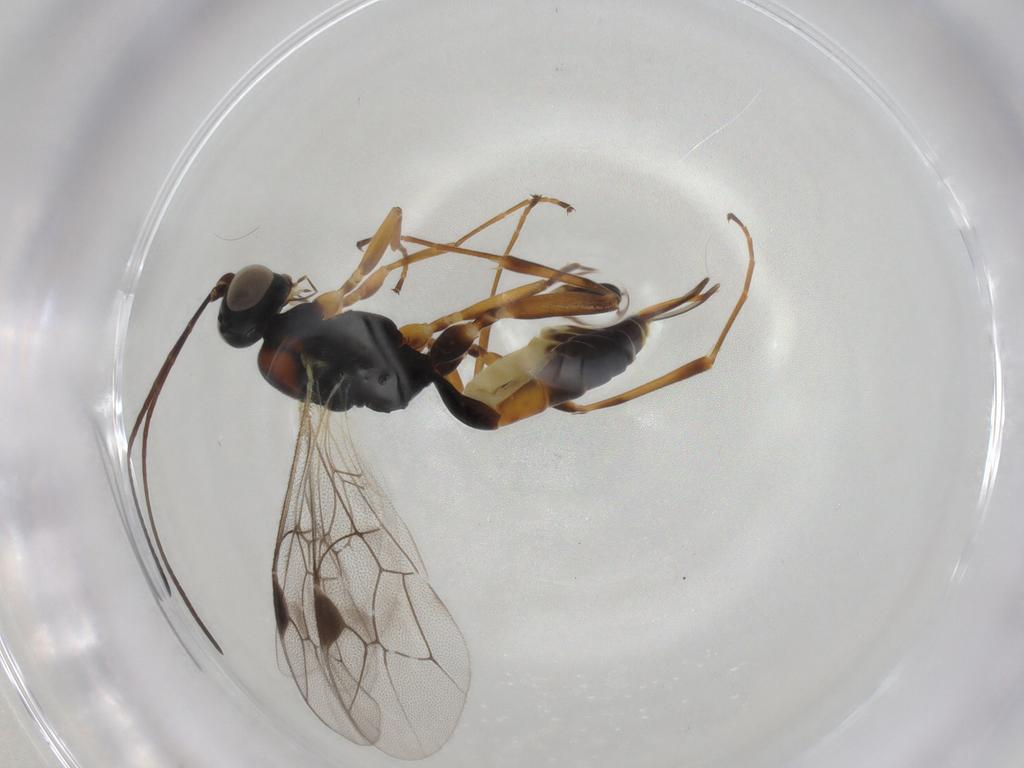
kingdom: Animalia
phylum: Arthropoda
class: Insecta
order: Hymenoptera
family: Ichneumonidae
